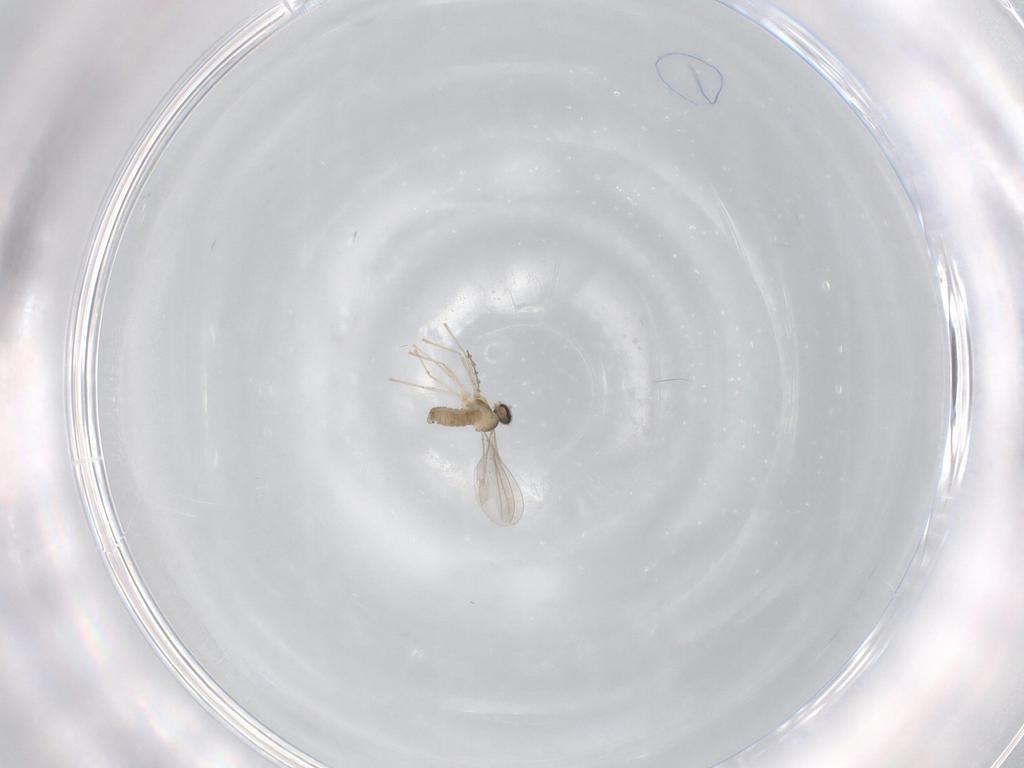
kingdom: Animalia
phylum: Arthropoda
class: Insecta
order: Diptera
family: Cecidomyiidae
